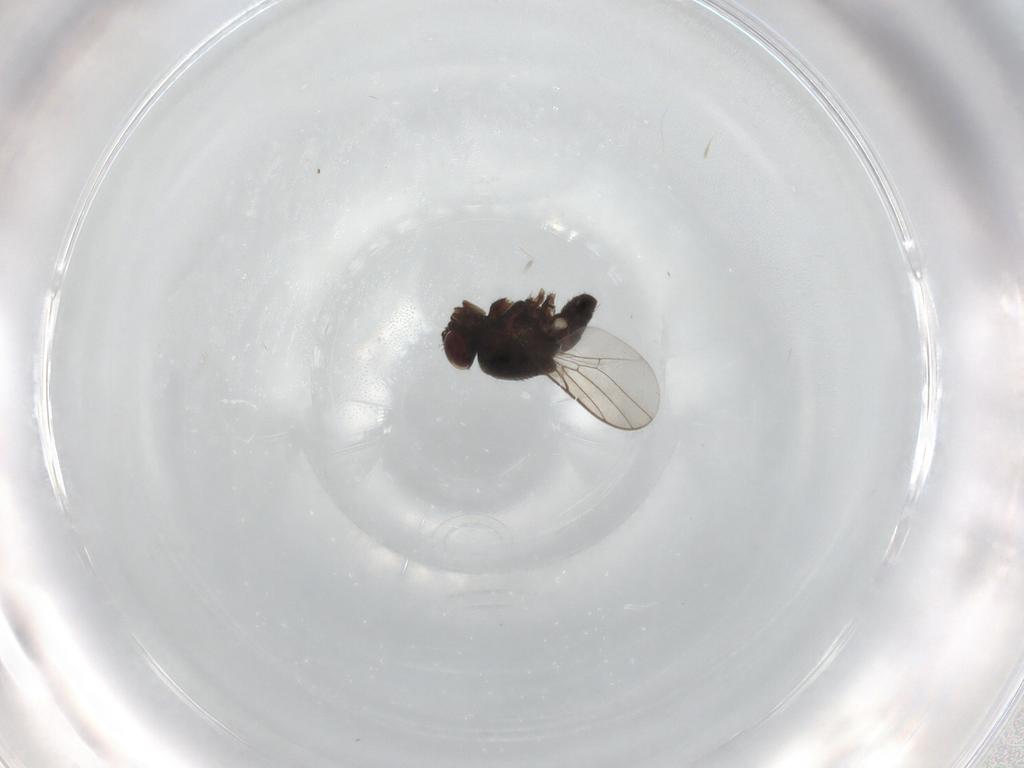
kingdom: Animalia
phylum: Arthropoda
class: Insecta
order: Diptera
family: Chloropidae
